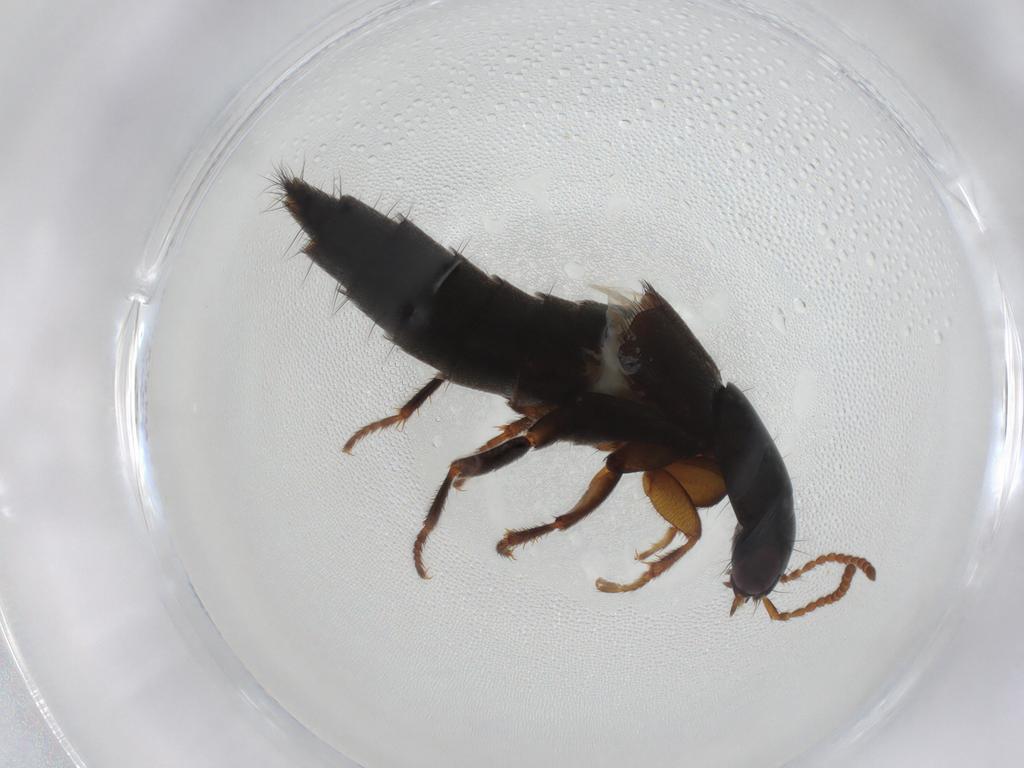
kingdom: Animalia
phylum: Arthropoda
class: Insecta
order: Coleoptera
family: Staphylinidae
